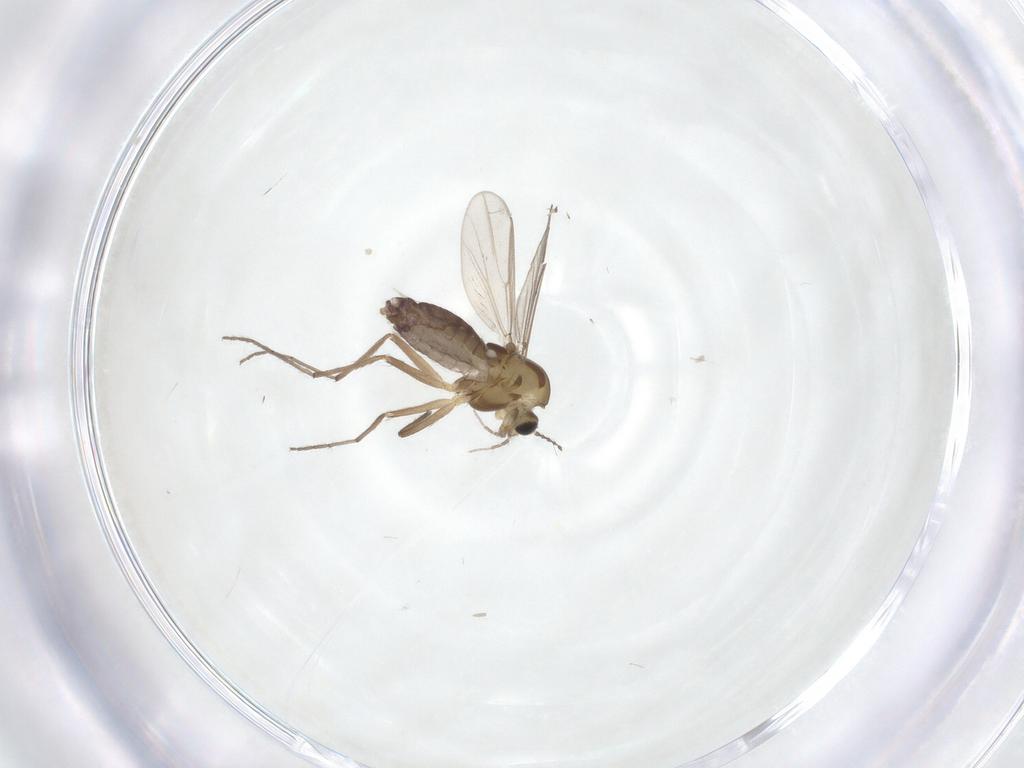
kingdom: Animalia
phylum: Arthropoda
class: Insecta
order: Diptera
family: Chironomidae
